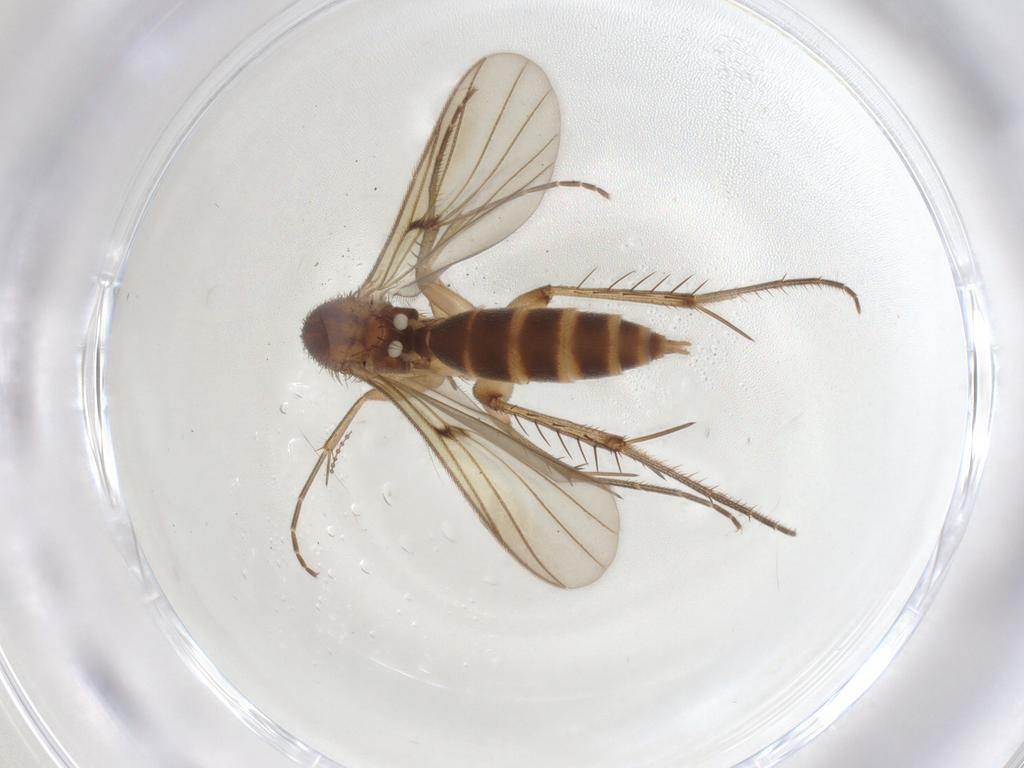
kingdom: Animalia
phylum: Arthropoda
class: Insecta
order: Diptera
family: Mycetophilidae
